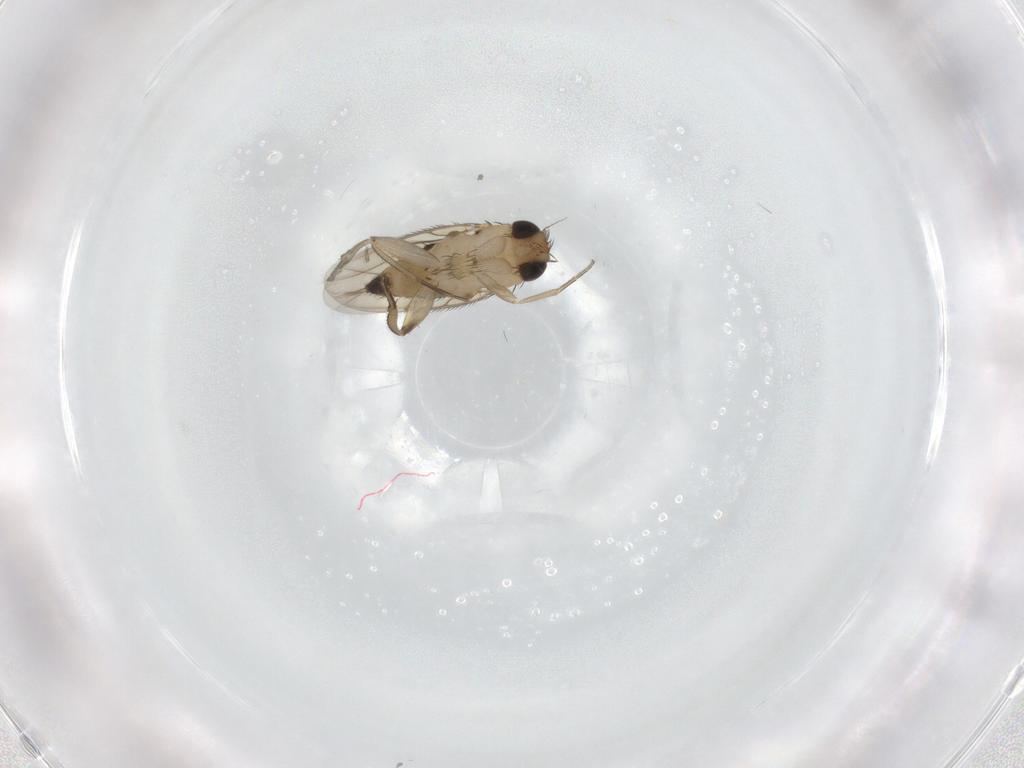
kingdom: Animalia
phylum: Arthropoda
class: Insecta
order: Diptera
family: Phoridae
